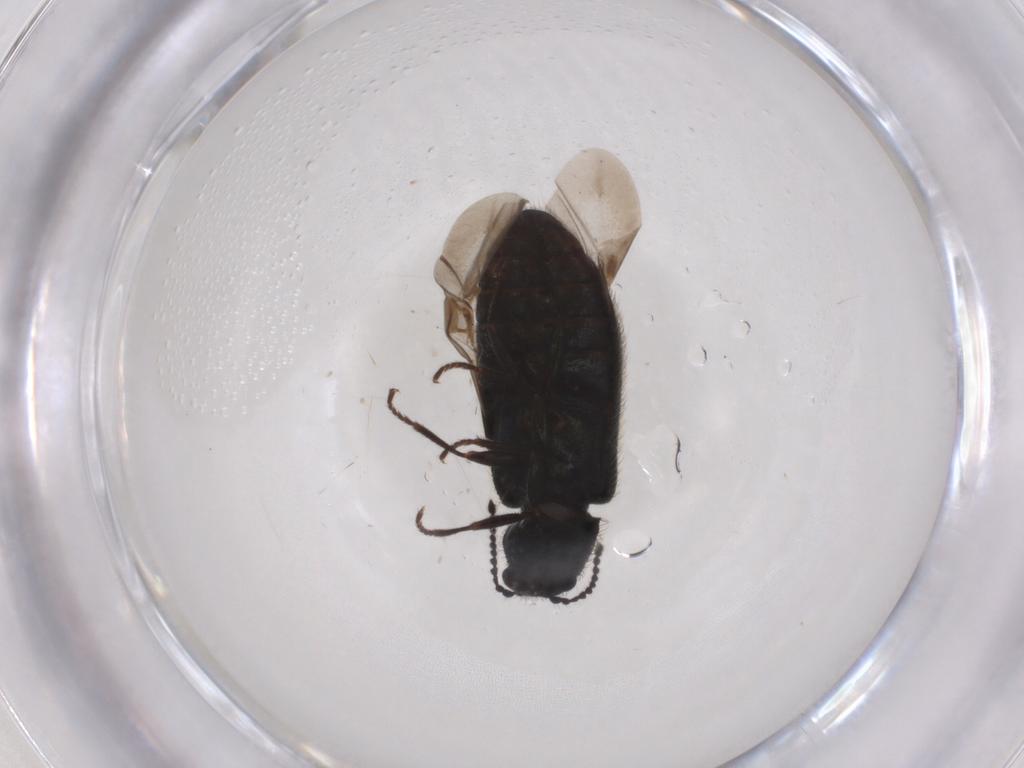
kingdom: Animalia
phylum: Arthropoda
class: Insecta
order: Coleoptera
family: Melyridae
